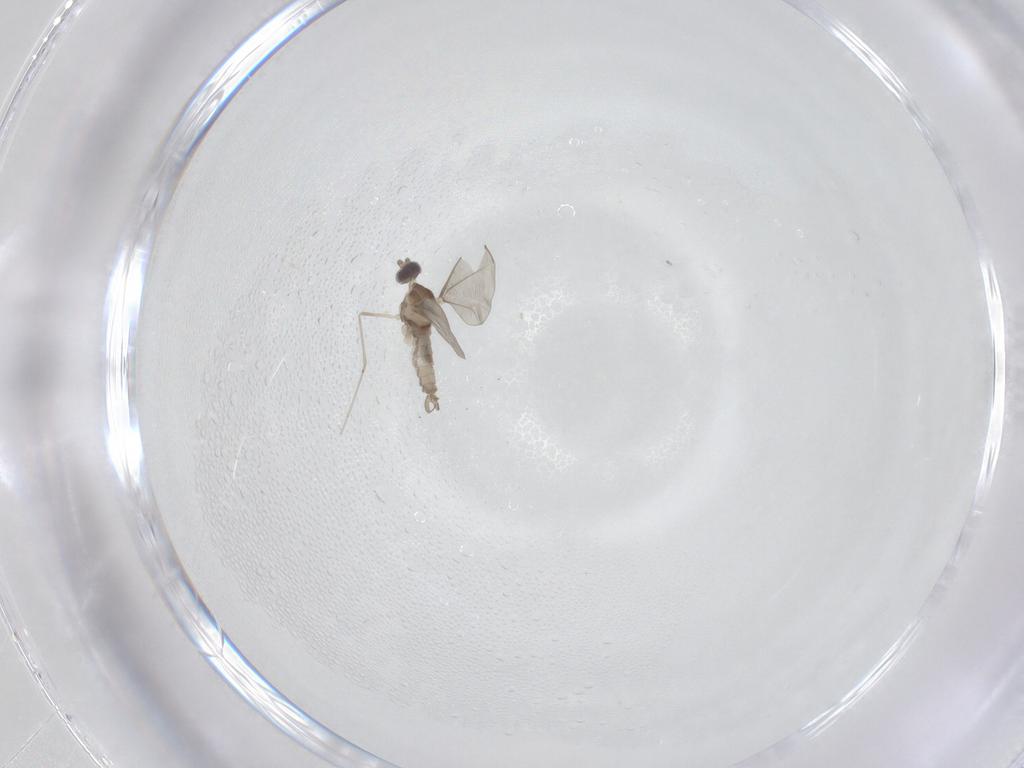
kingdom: Animalia
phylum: Arthropoda
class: Insecta
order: Diptera
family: Cecidomyiidae
